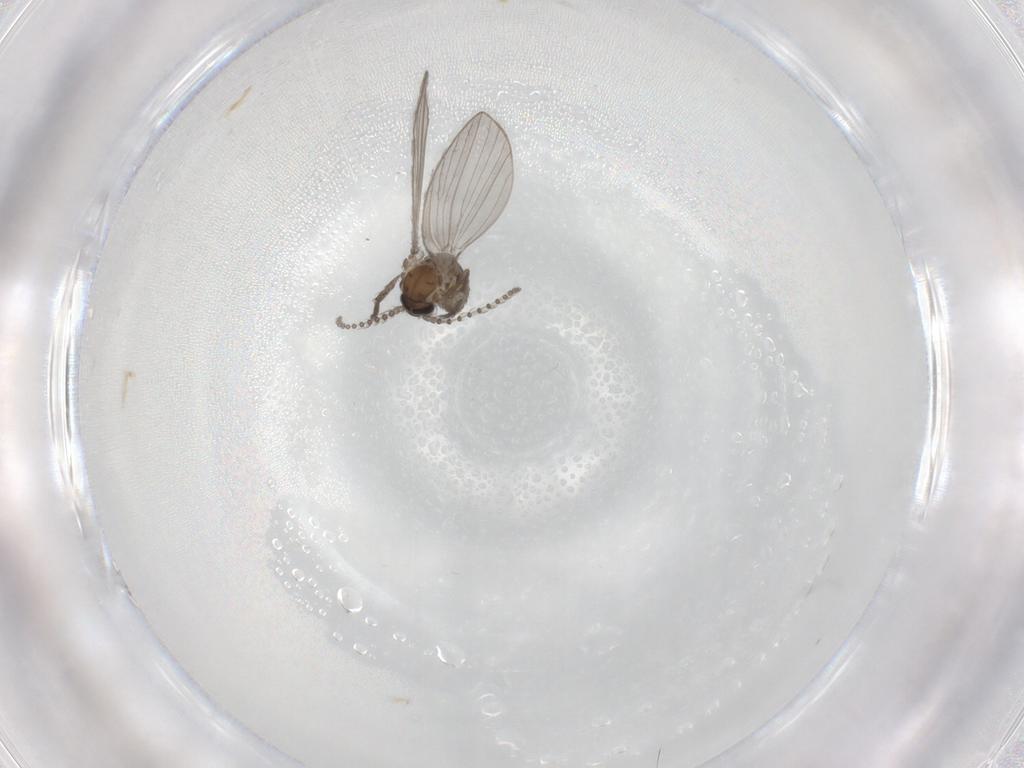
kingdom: Animalia
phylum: Arthropoda
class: Insecta
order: Diptera
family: Psychodidae
